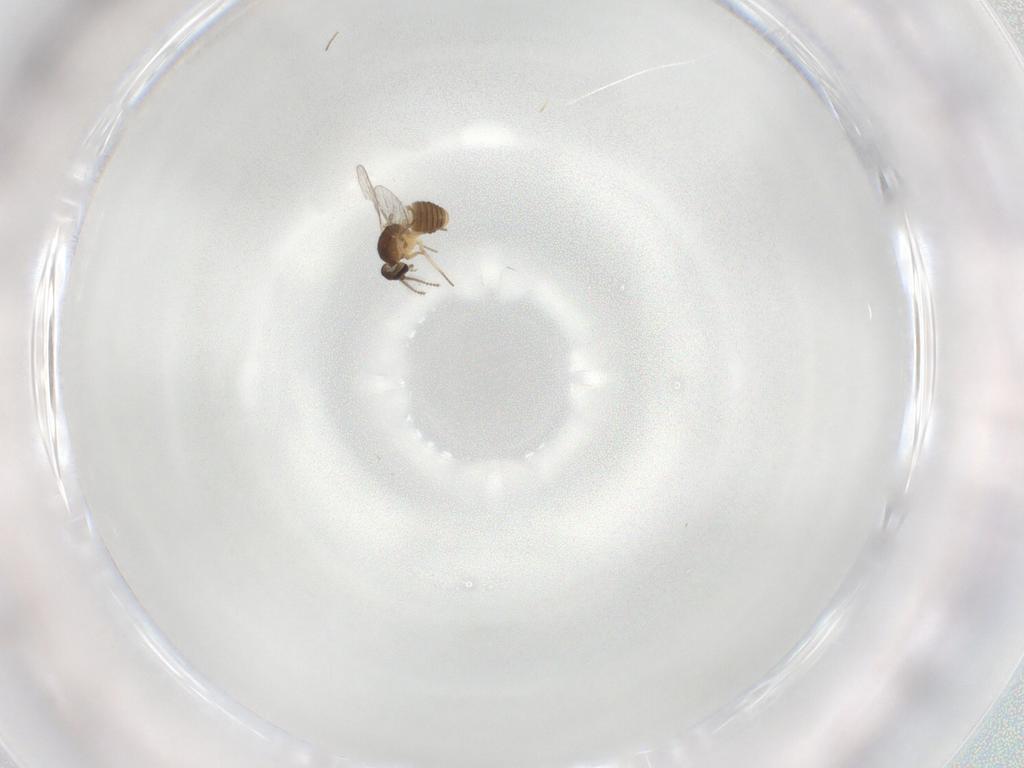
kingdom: Animalia
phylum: Arthropoda
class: Insecta
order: Diptera
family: Ceratopogonidae
